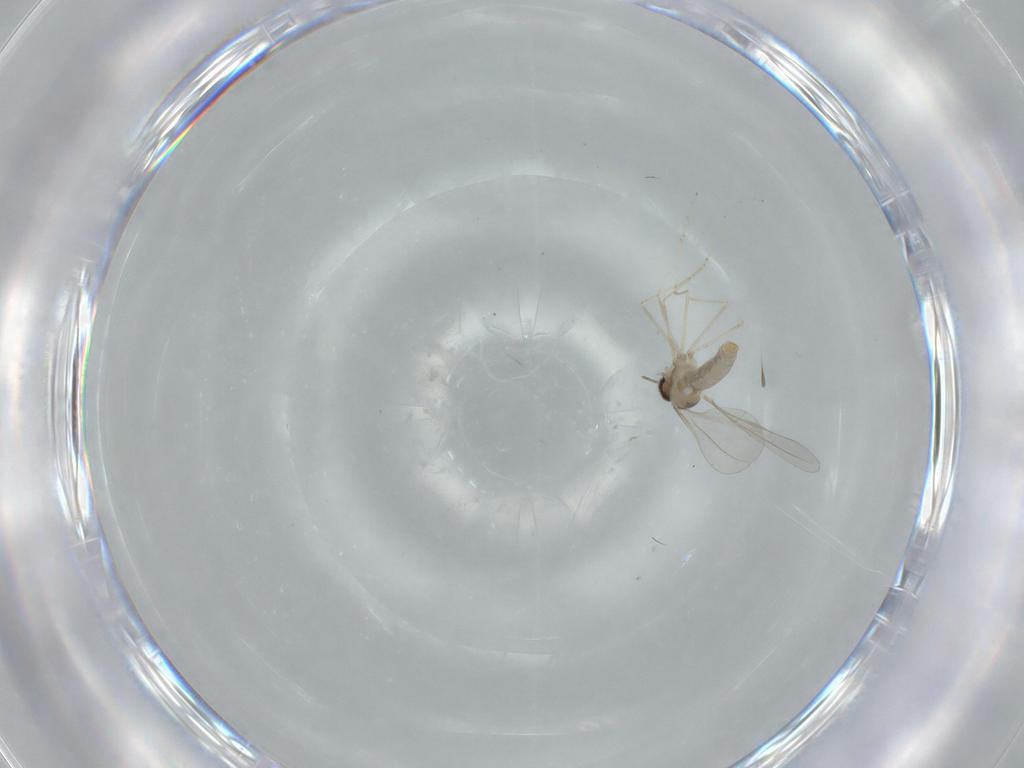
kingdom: Animalia
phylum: Arthropoda
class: Insecta
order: Diptera
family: Cecidomyiidae
